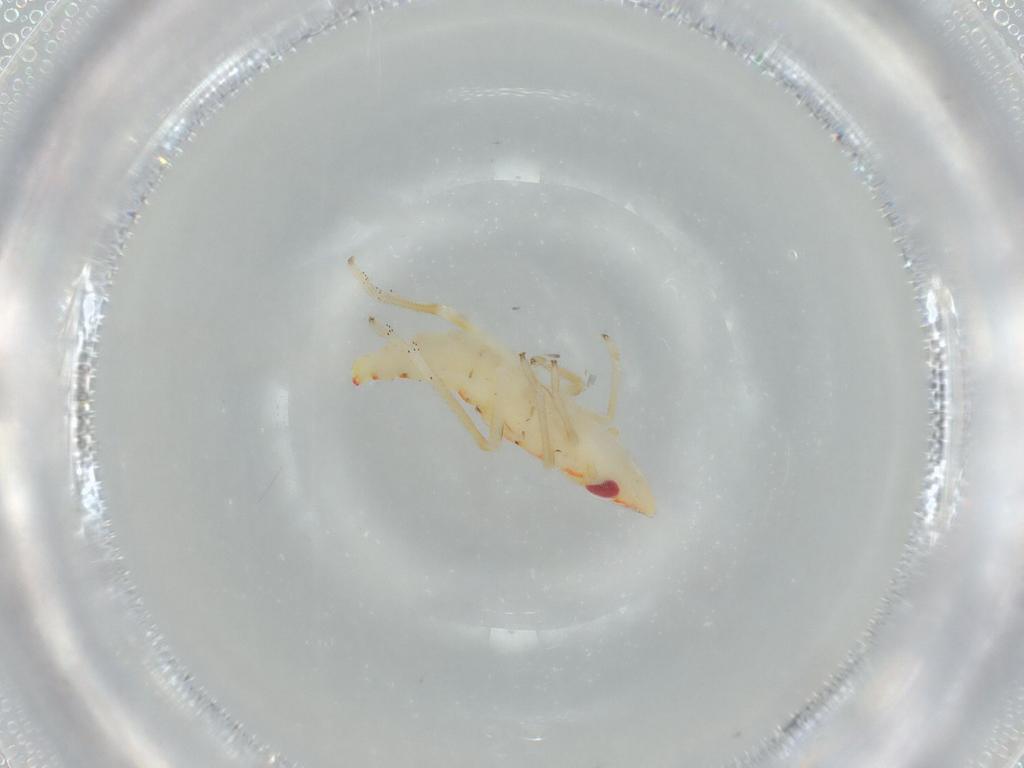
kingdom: Animalia
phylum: Arthropoda
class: Insecta
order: Hemiptera
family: Tropiduchidae
